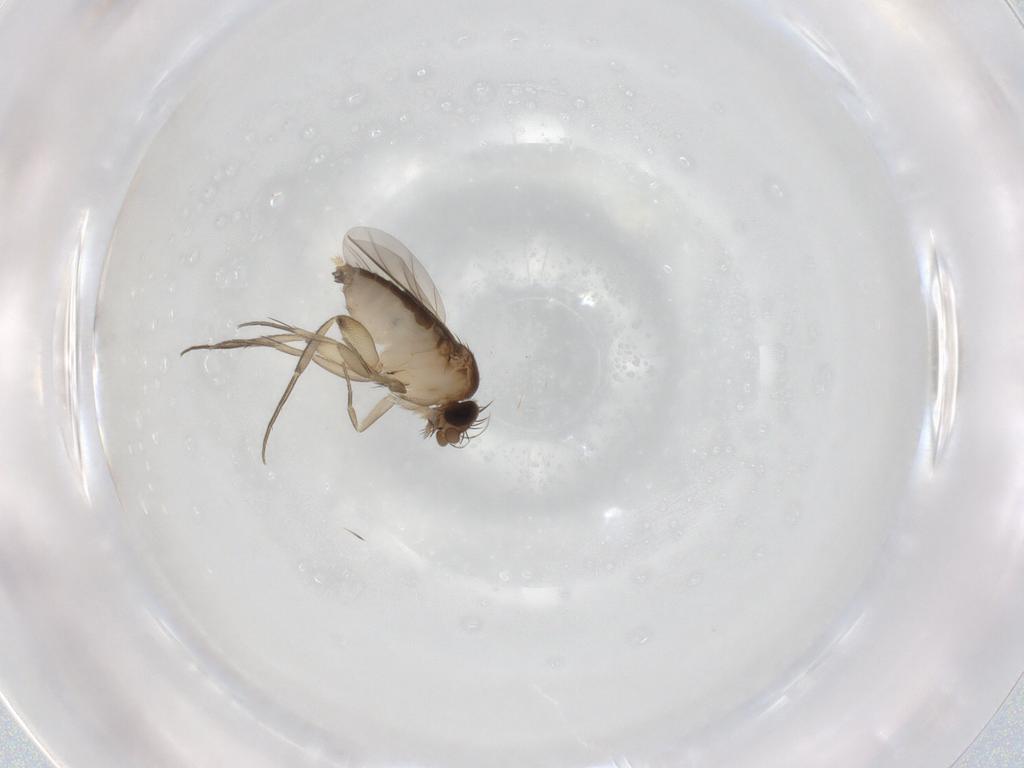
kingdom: Animalia
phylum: Arthropoda
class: Insecta
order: Diptera
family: Phoridae
